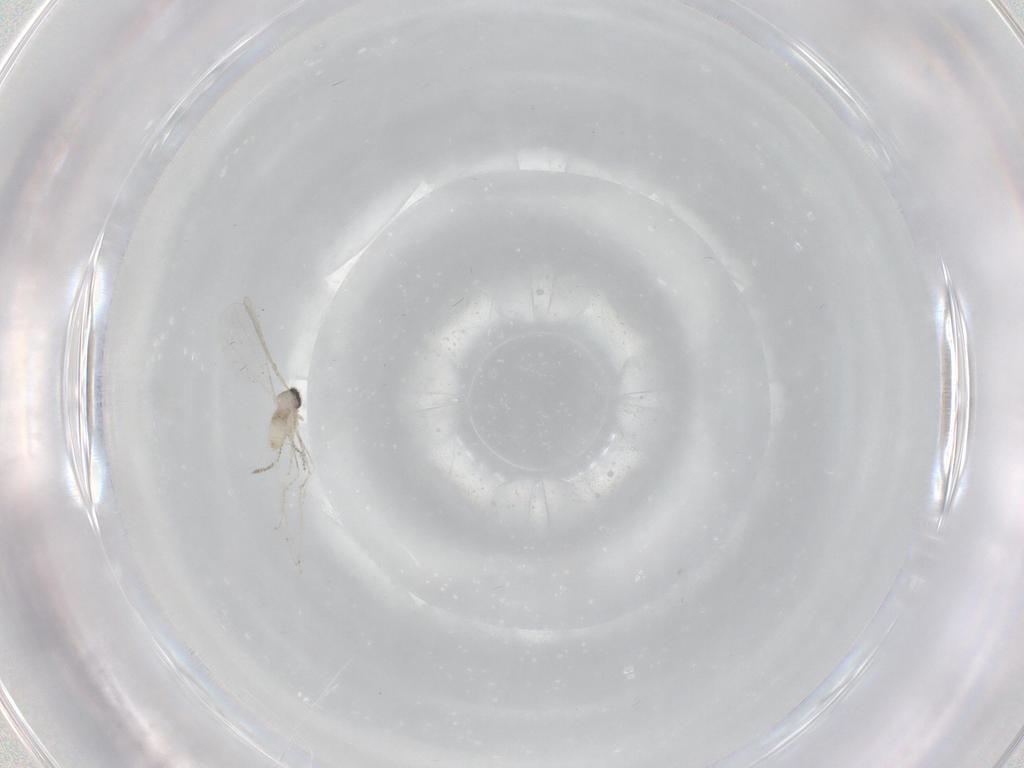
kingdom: Animalia
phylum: Arthropoda
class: Insecta
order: Diptera
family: Cecidomyiidae
